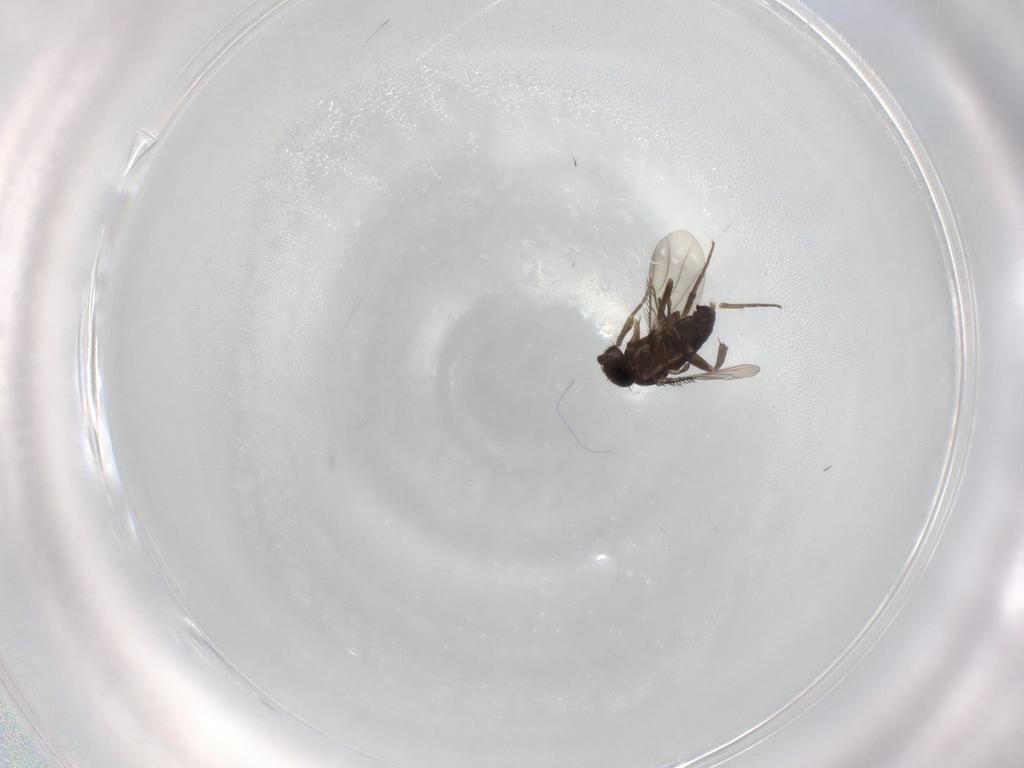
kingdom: Animalia
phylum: Arthropoda
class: Insecta
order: Diptera
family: Phoridae
